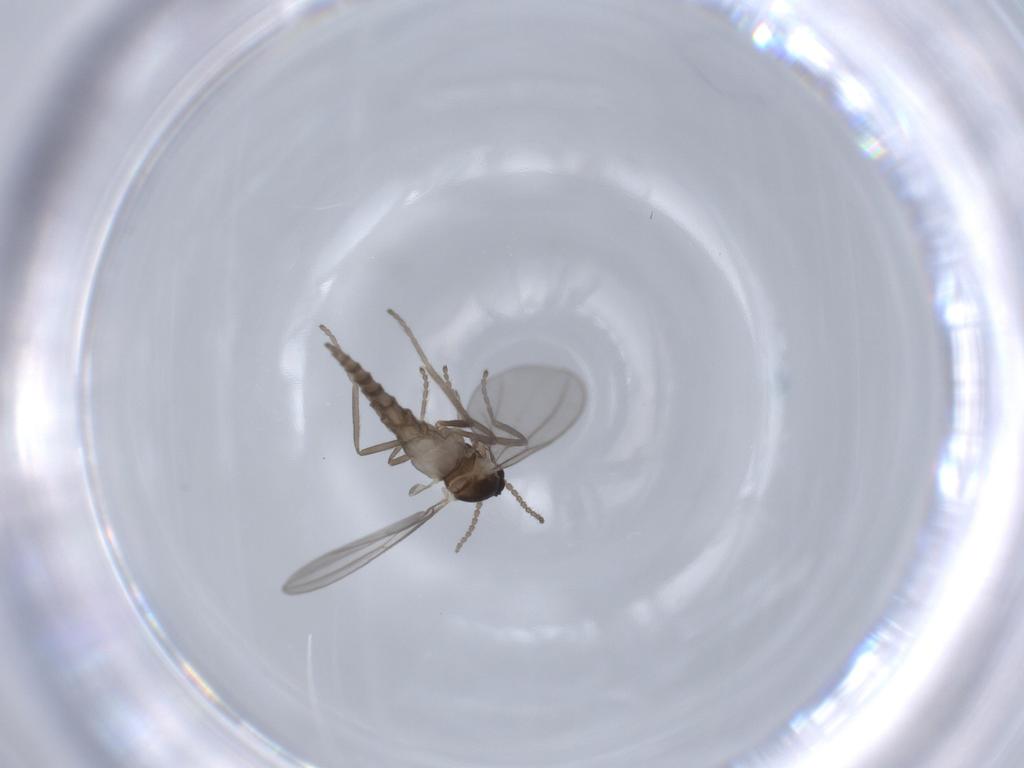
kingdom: Animalia
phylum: Arthropoda
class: Insecta
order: Diptera
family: Cecidomyiidae
